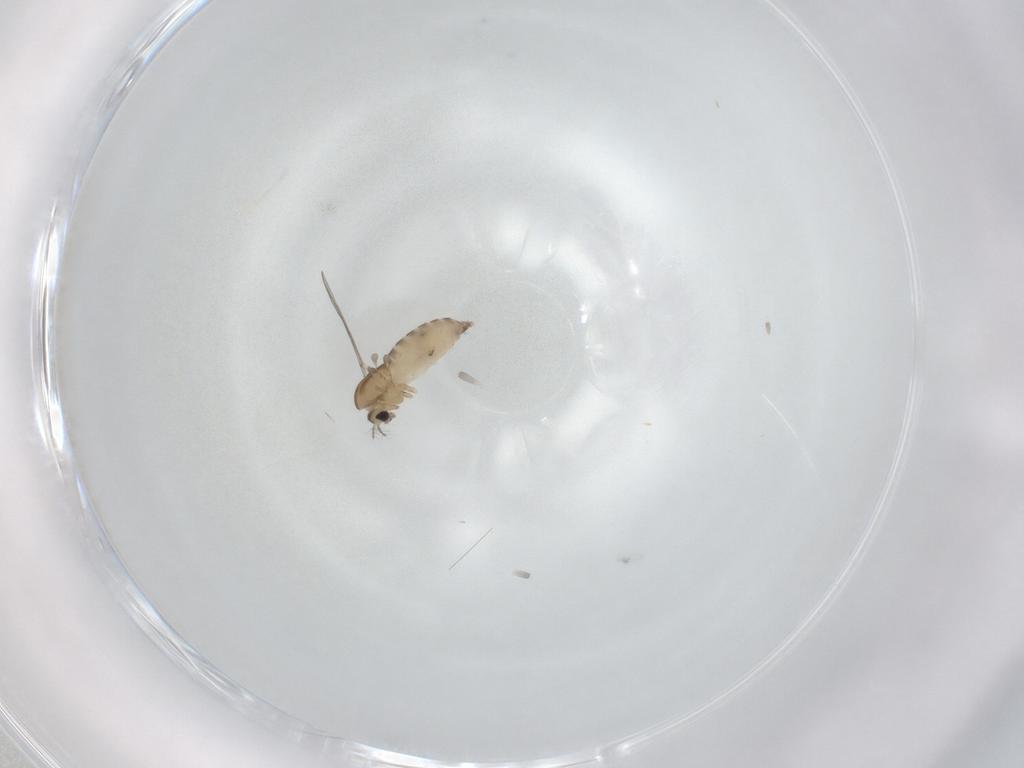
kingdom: Animalia
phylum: Arthropoda
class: Insecta
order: Diptera
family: Chironomidae
